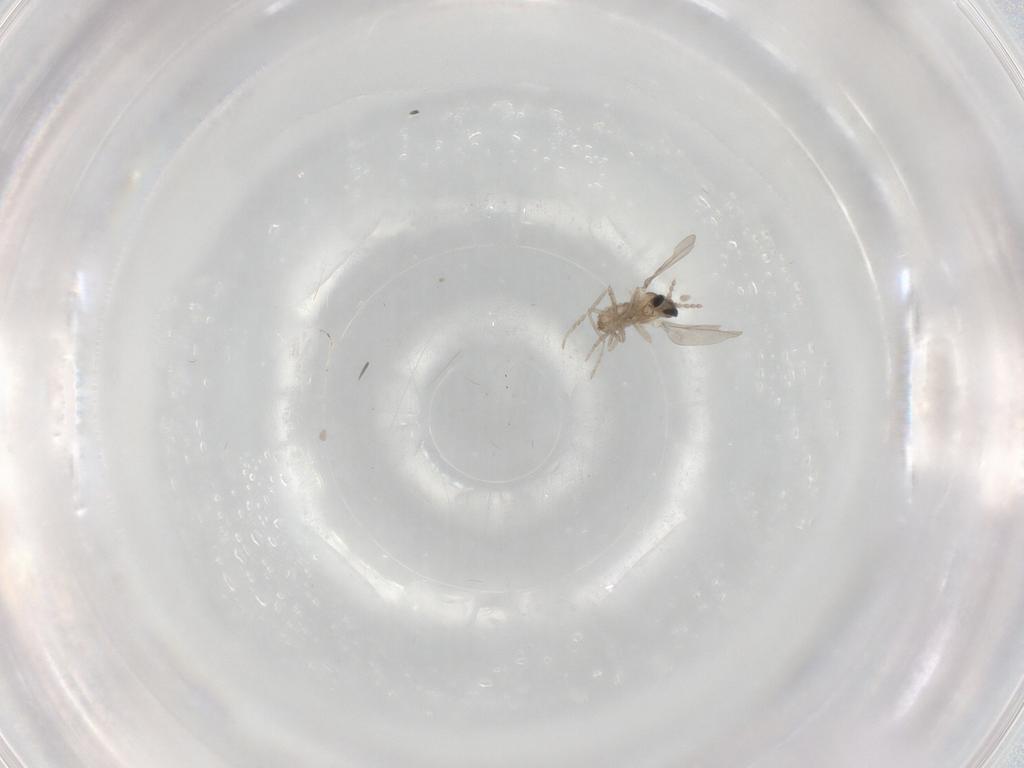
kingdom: Animalia
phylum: Arthropoda
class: Insecta
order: Diptera
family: Cecidomyiidae
